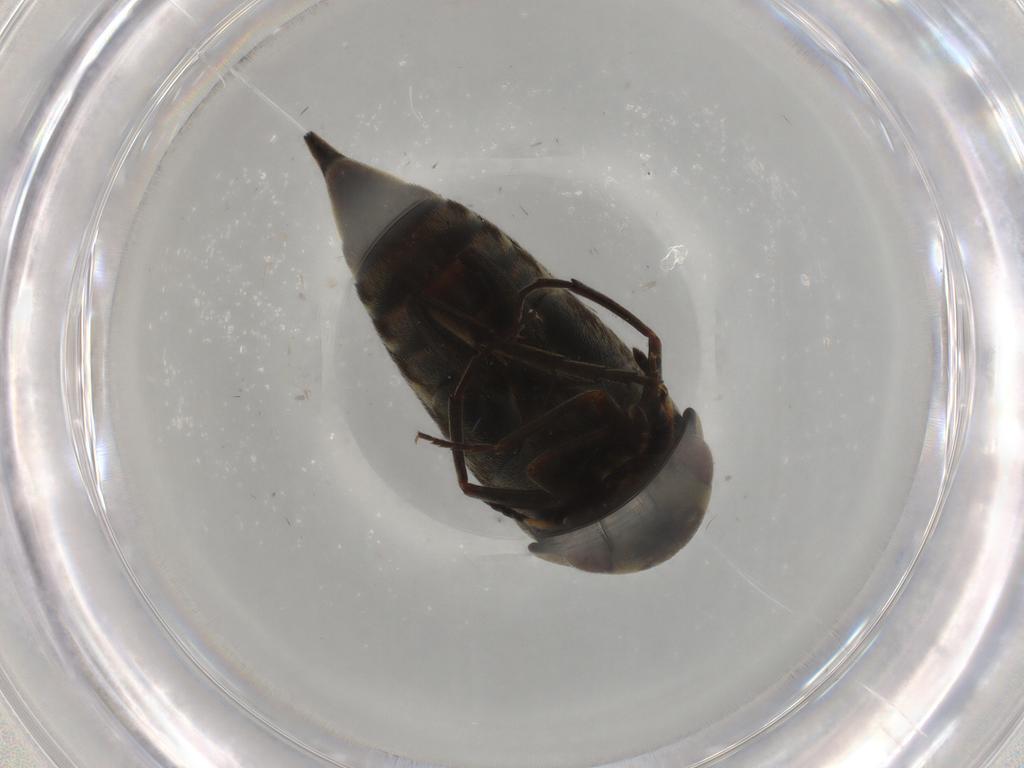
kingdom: Animalia
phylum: Arthropoda
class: Insecta
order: Coleoptera
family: Mordellidae
